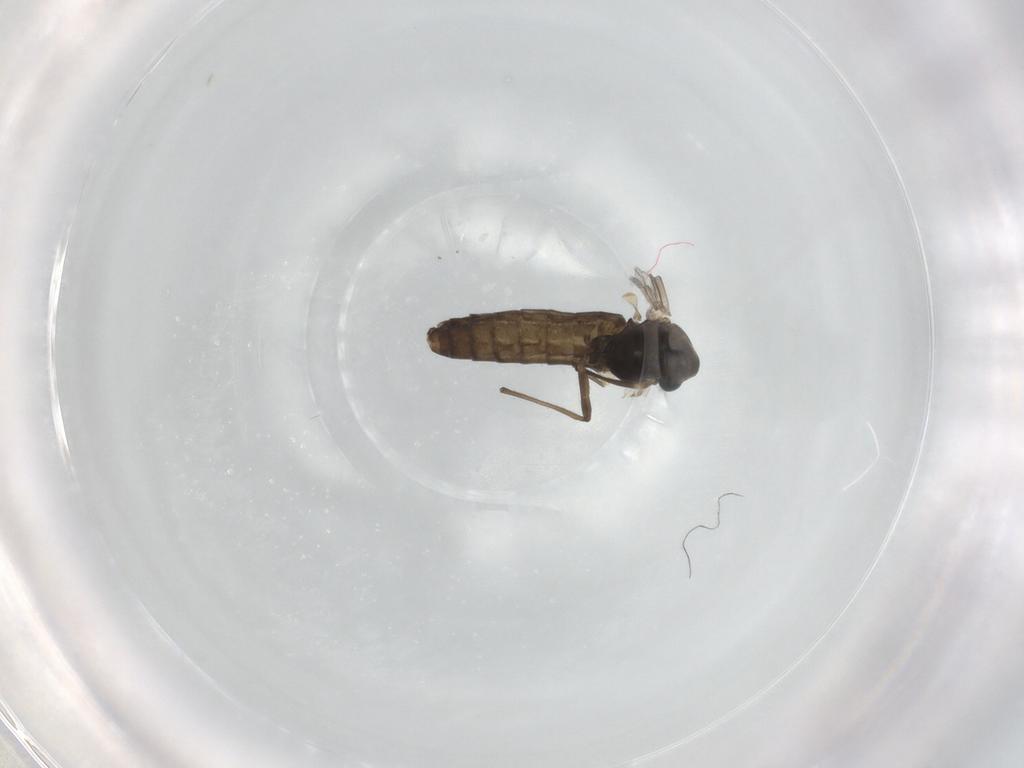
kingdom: Animalia
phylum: Arthropoda
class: Insecta
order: Diptera
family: Chironomidae
